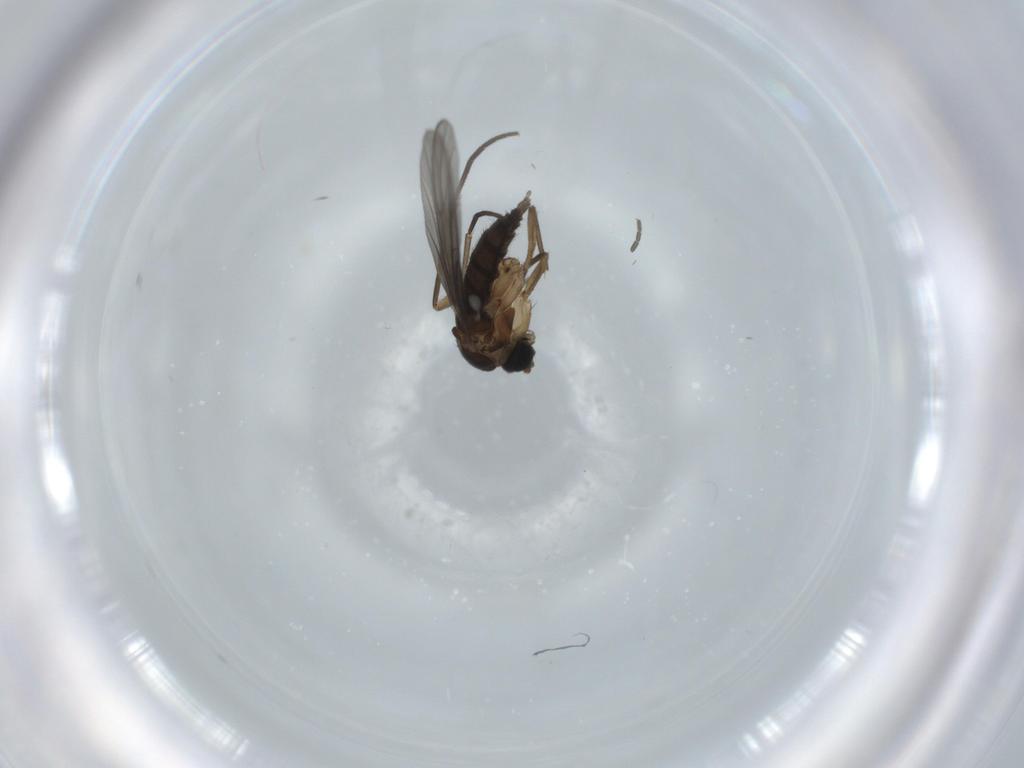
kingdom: Animalia
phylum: Arthropoda
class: Insecta
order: Diptera
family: Sciaridae
